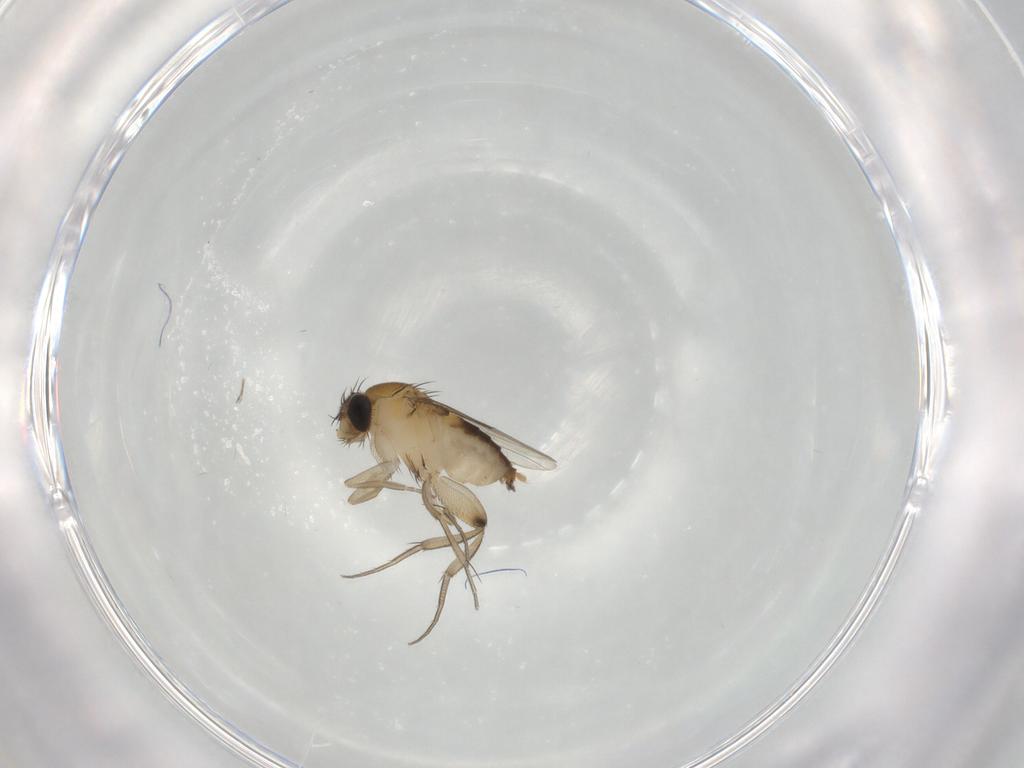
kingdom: Animalia
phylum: Arthropoda
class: Insecta
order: Diptera
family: Phoridae
